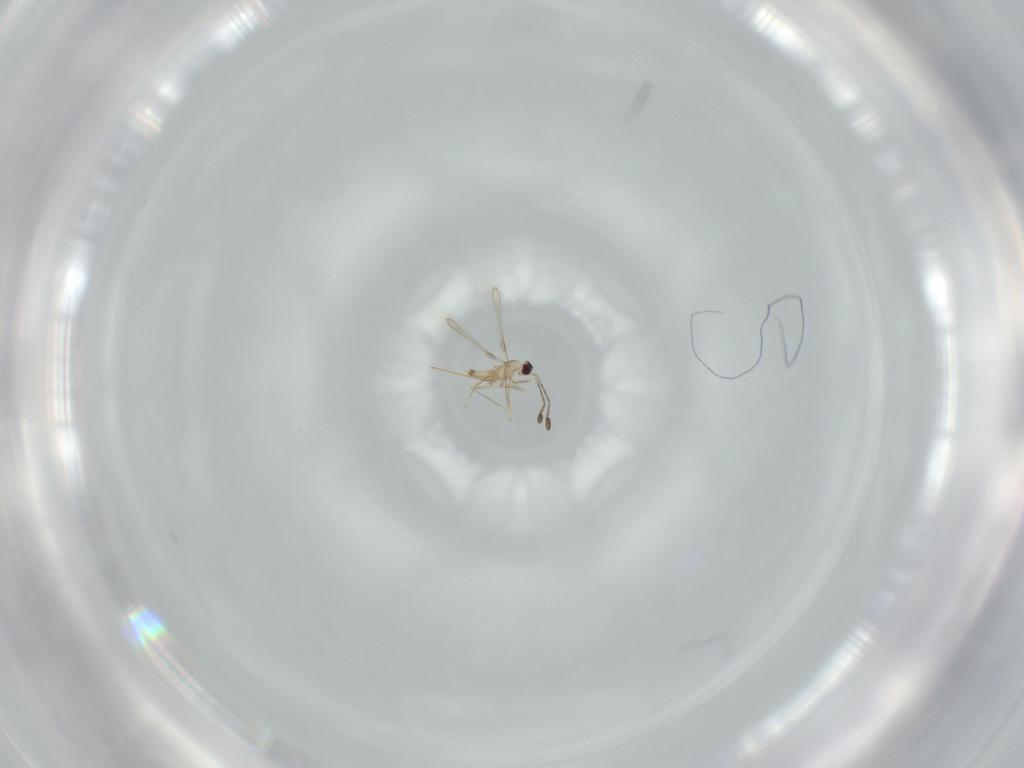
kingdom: Animalia
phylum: Arthropoda
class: Insecta
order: Hymenoptera
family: Mymaridae
